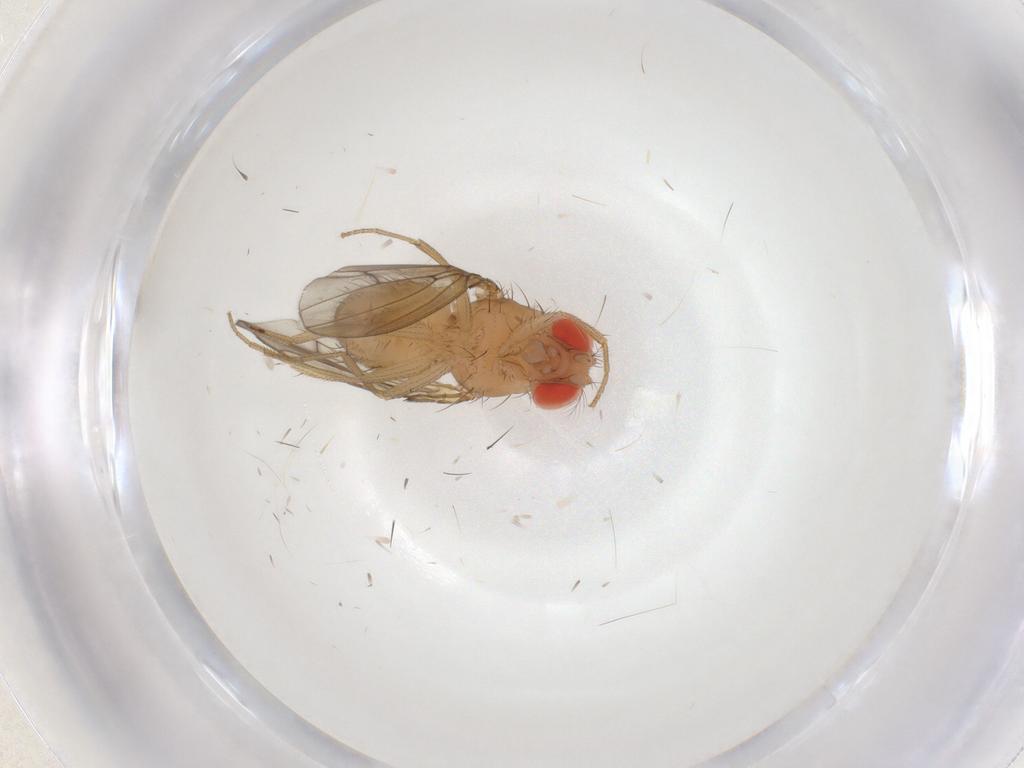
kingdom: Animalia
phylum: Arthropoda
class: Insecta
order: Diptera
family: Drosophilidae
